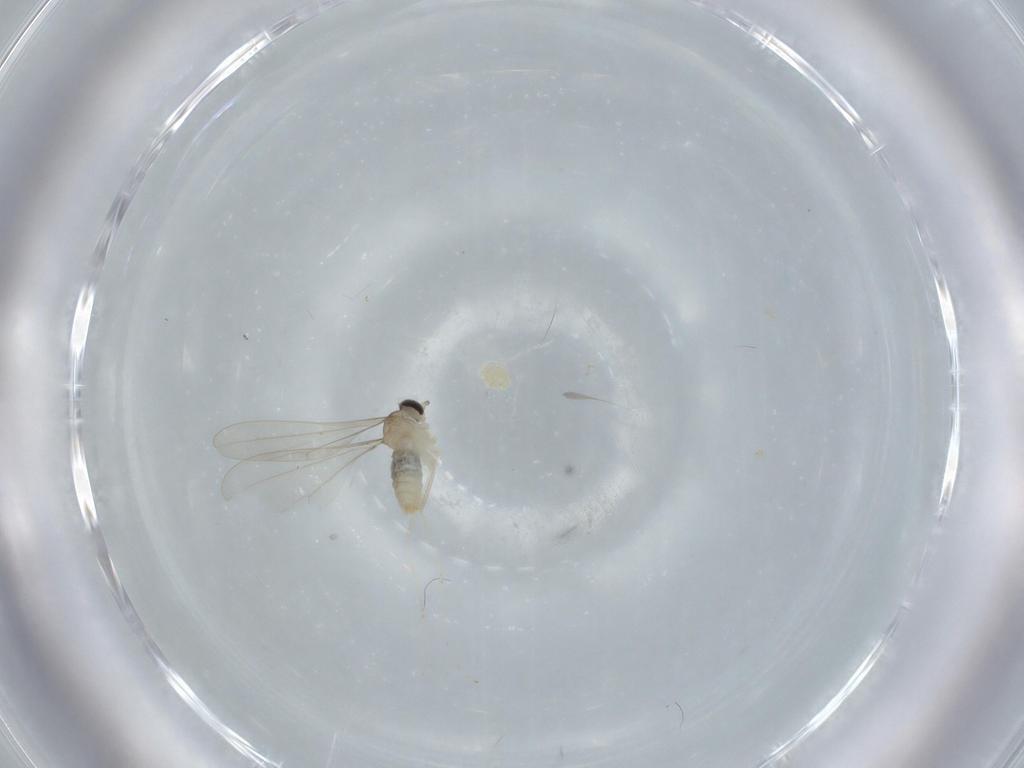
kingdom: Animalia
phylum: Arthropoda
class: Insecta
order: Diptera
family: Cecidomyiidae
